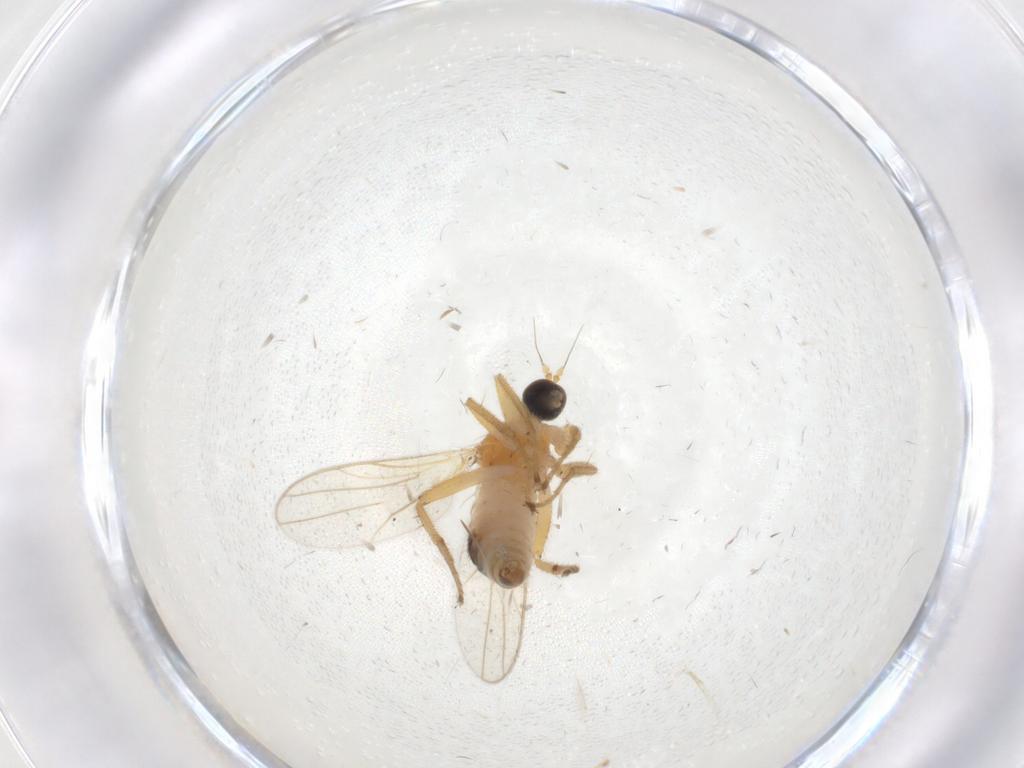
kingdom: Animalia
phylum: Arthropoda
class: Insecta
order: Diptera
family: Hybotidae
